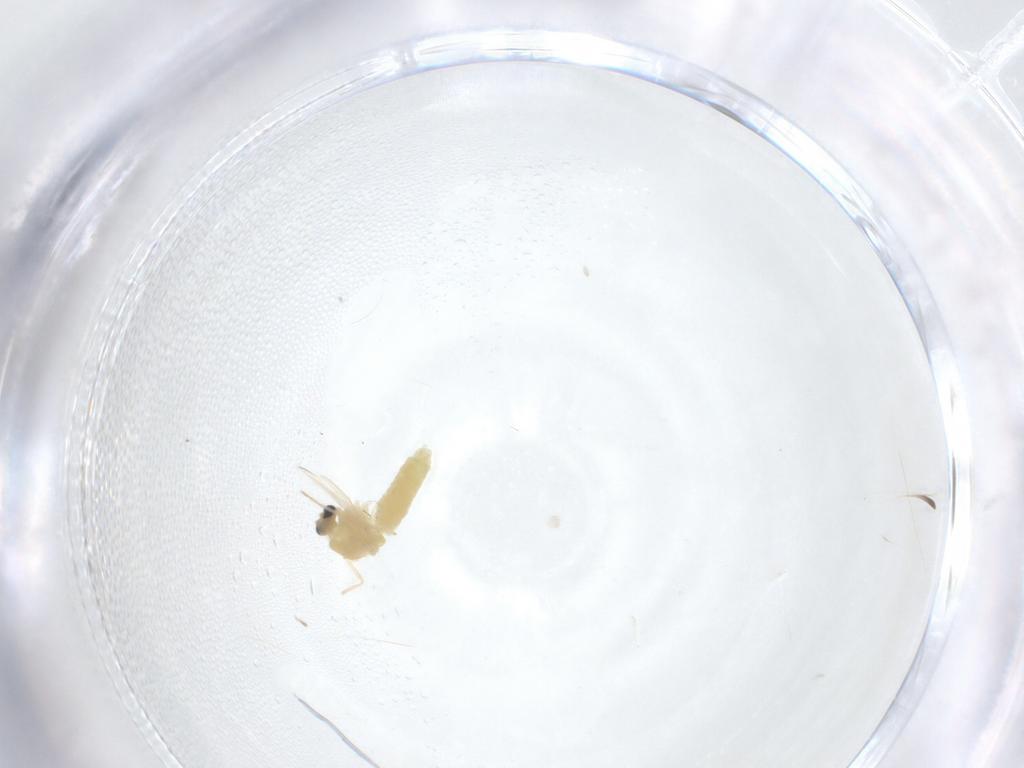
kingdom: Animalia
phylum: Arthropoda
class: Insecta
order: Diptera
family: Chironomidae
